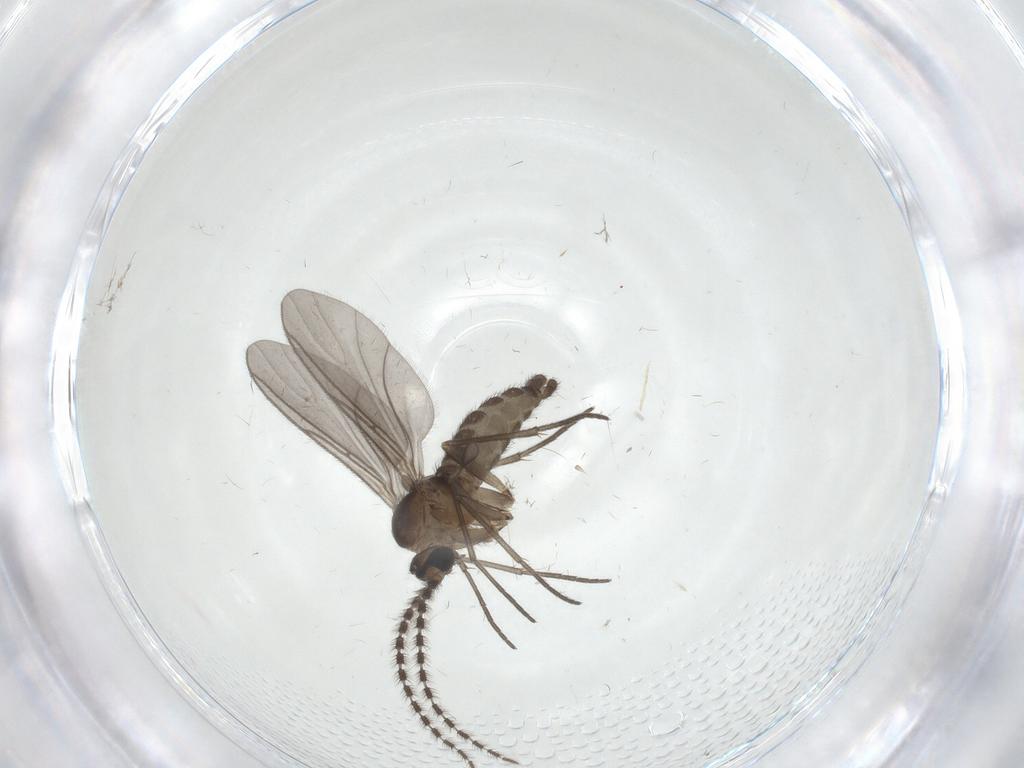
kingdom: Animalia
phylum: Arthropoda
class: Insecta
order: Diptera
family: Sciaridae
